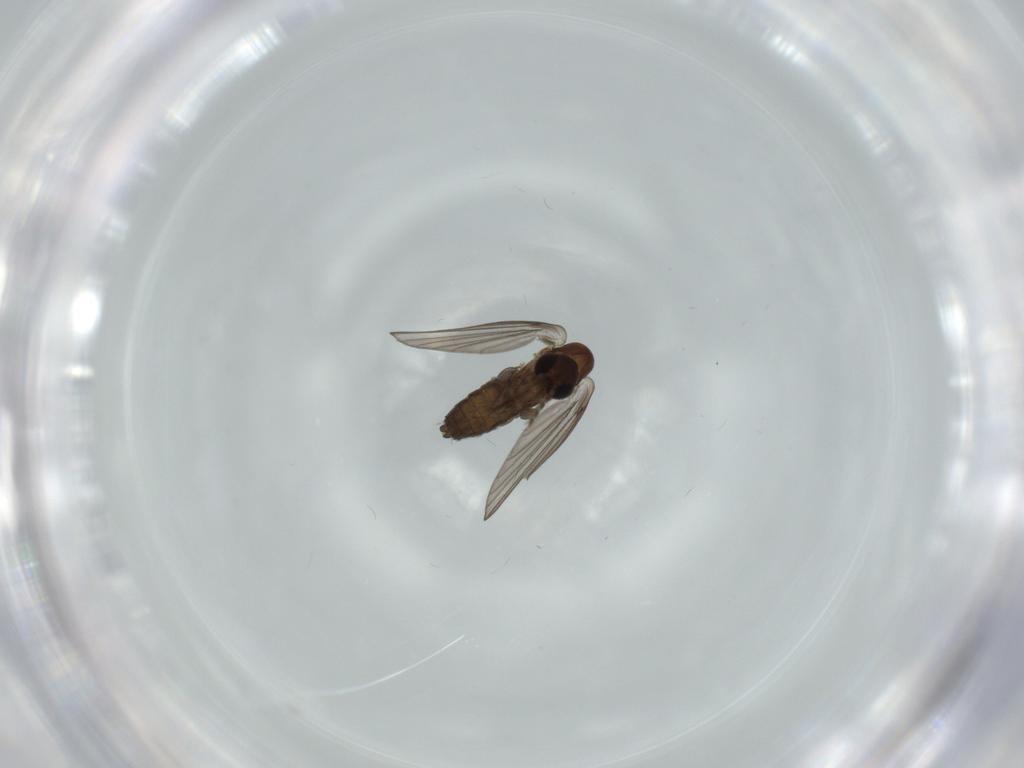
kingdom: Animalia
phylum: Arthropoda
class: Insecta
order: Diptera
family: Psychodidae
